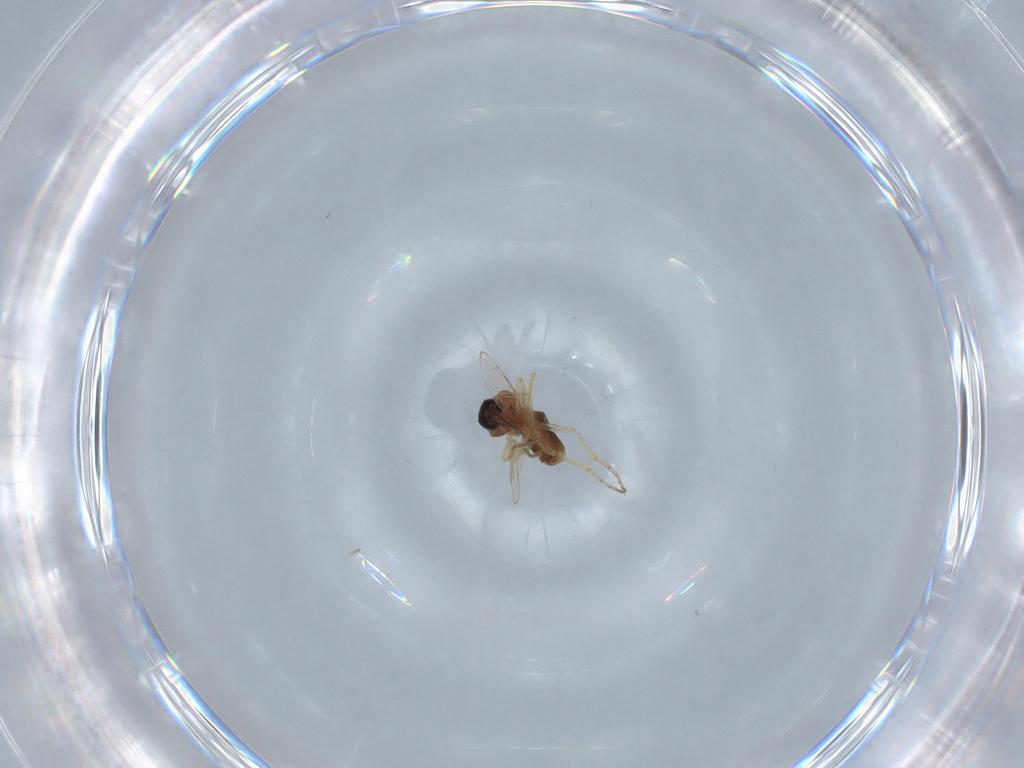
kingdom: Animalia
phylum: Arthropoda
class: Insecta
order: Diptera
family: Ceratopogonidae
